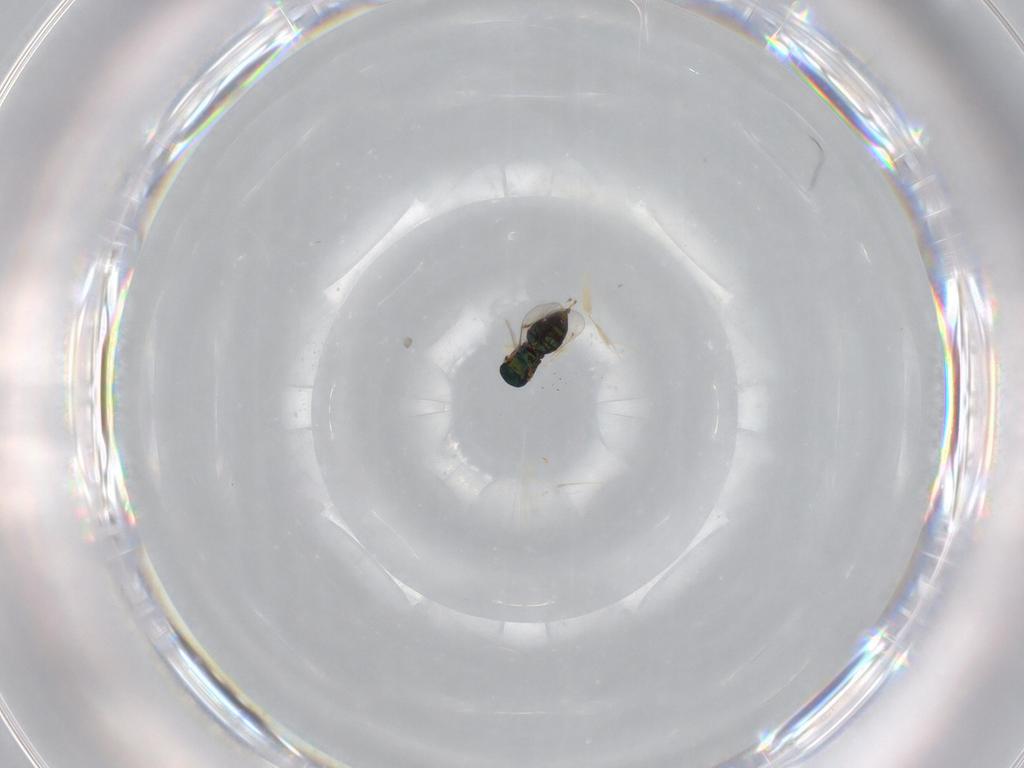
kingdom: Animalia
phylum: Arthropoda
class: Insecta
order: Hymenoptera
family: Eulophidae
